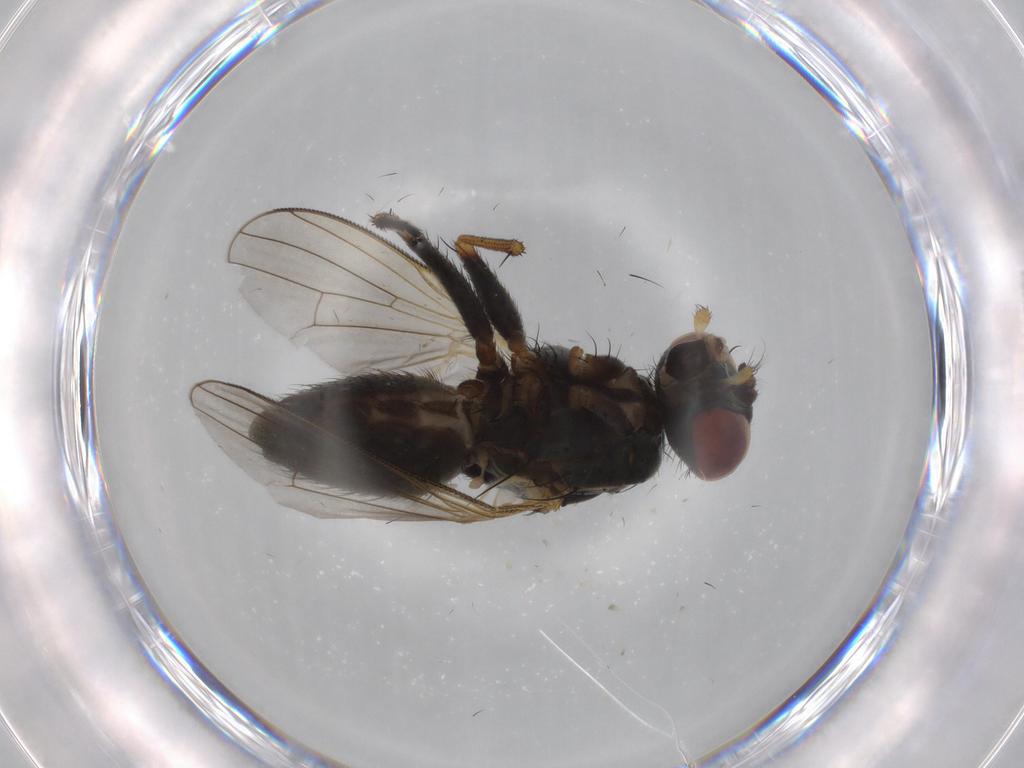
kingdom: Animalia
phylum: Arthropoda
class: Insecta
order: Diptera
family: Muscidae
